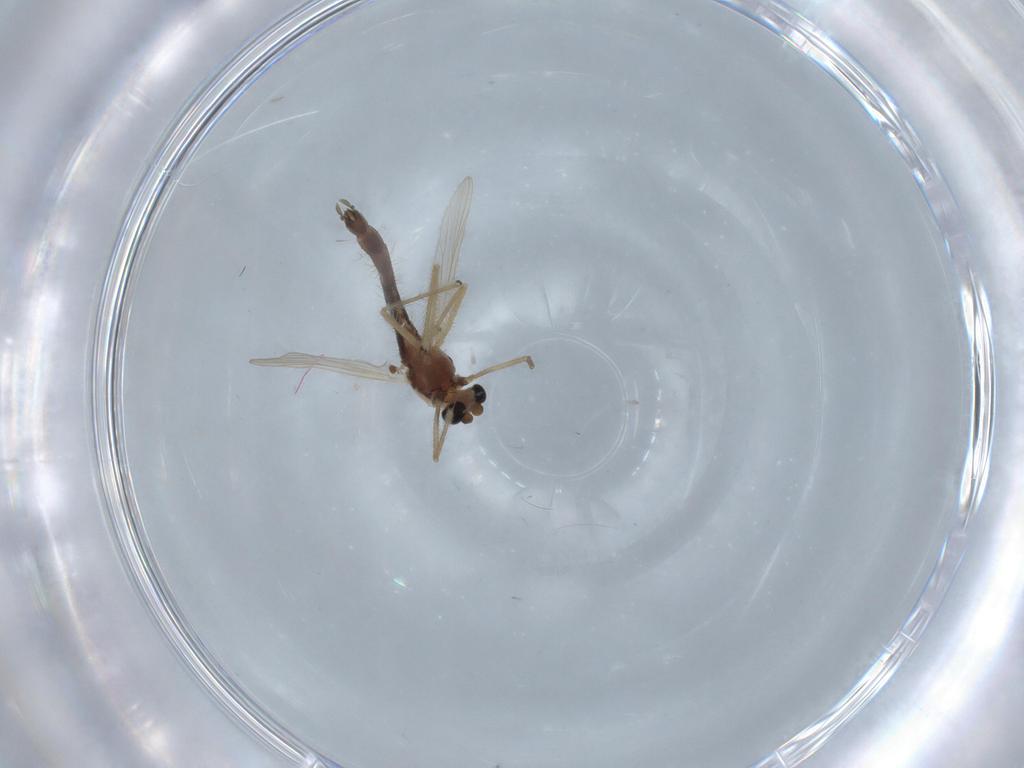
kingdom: Animalia
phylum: Arthropoda
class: Insecta
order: Diptera
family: Chironomidae
